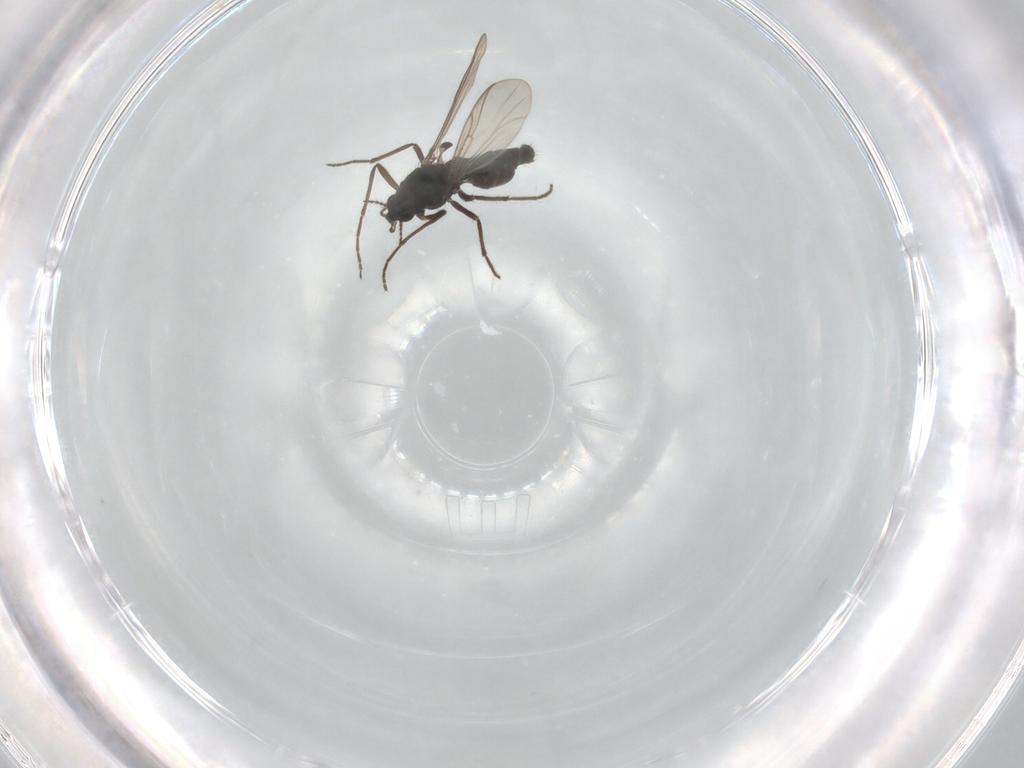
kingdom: Animalia
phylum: Arthropoda
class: Insecta
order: Diptera
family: Chironomidae
